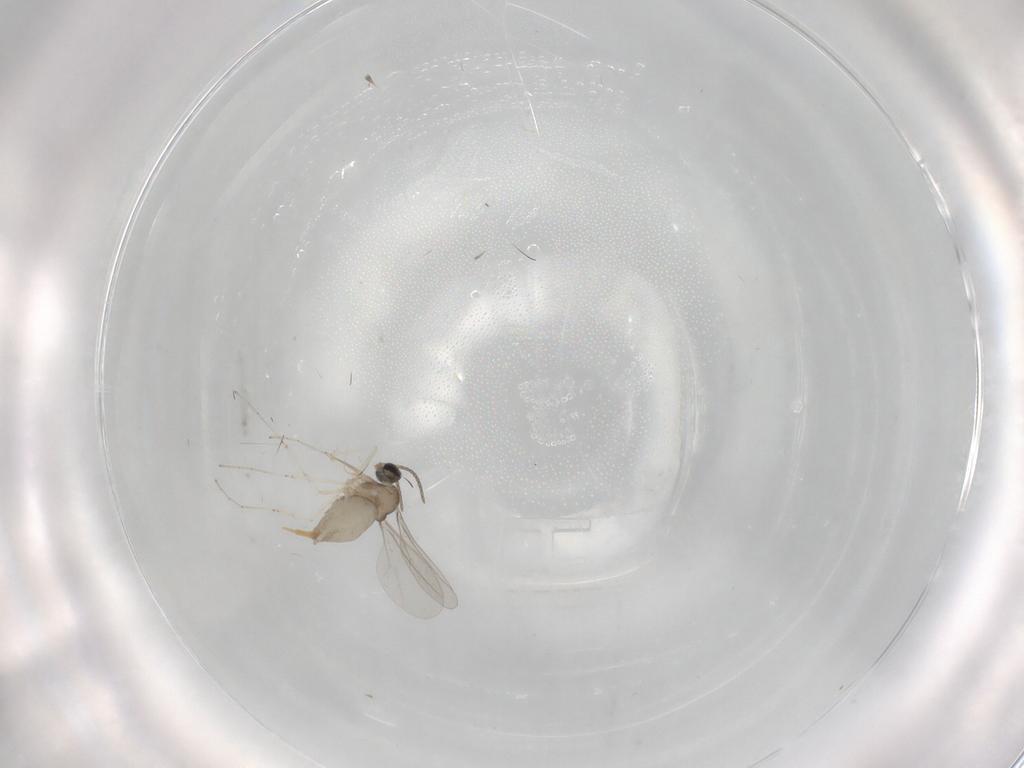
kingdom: Animalia
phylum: Arthropoda
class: Insecta
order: Diptera
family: Cecidomyiidae
